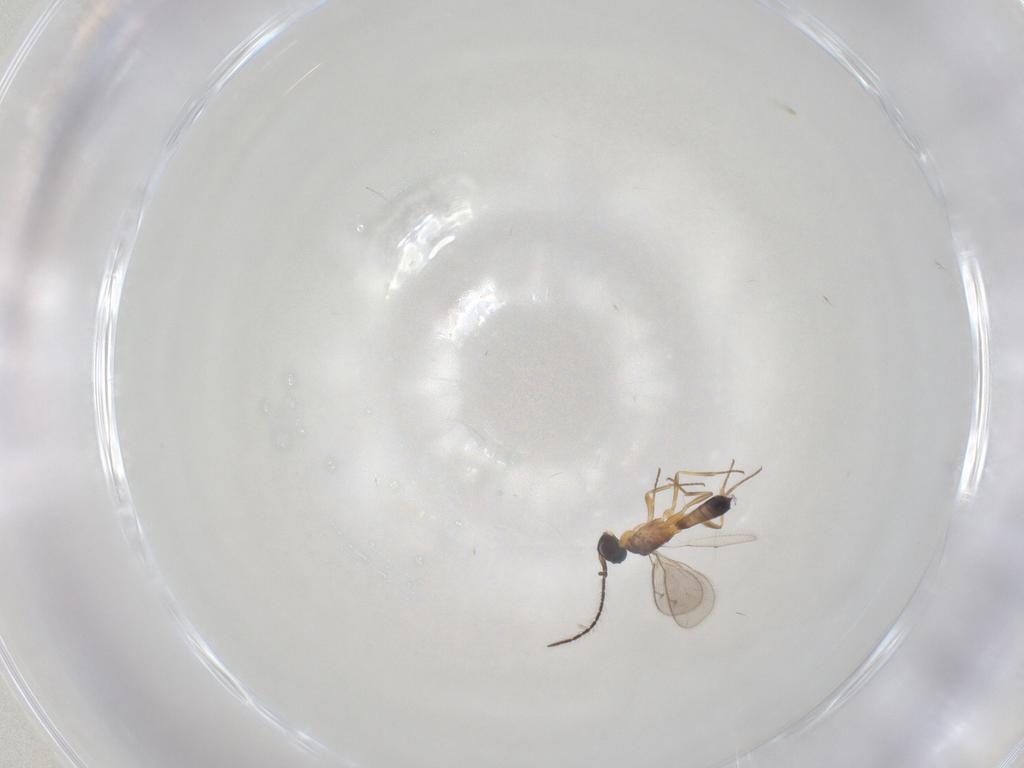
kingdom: Animalia
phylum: Arthropoda
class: Insecta
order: Hymenoptera
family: Eupelmidae
